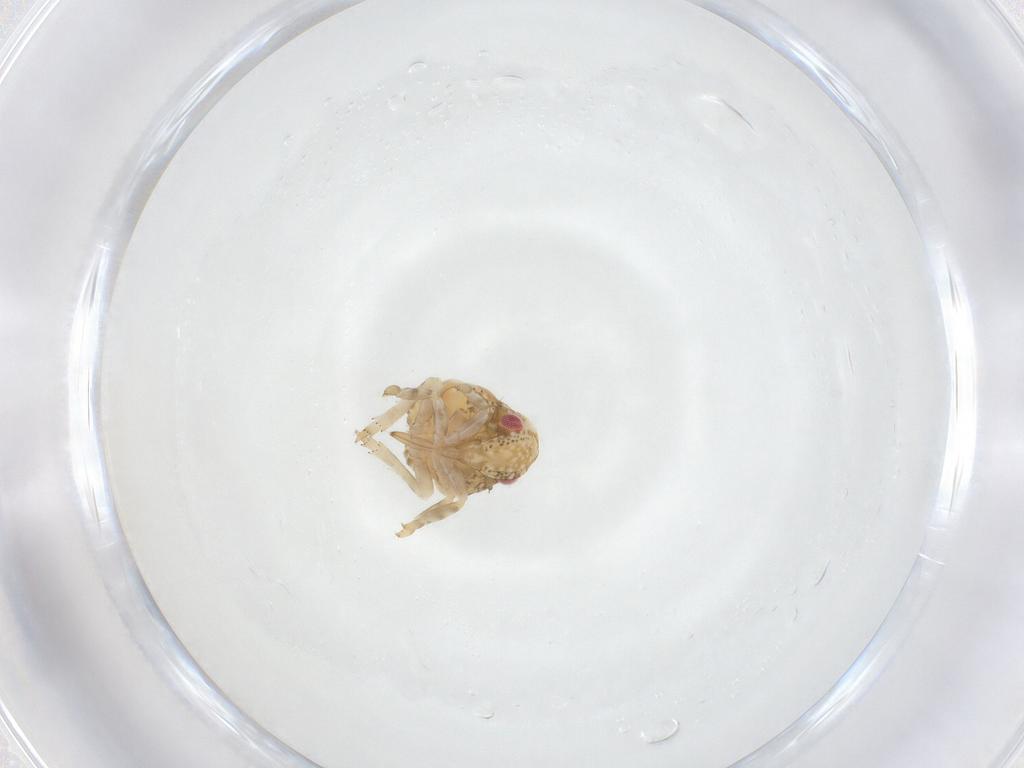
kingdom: Animalia
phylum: Arthropoda
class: Insecta
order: Hemiptera
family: Acanaloniidae
